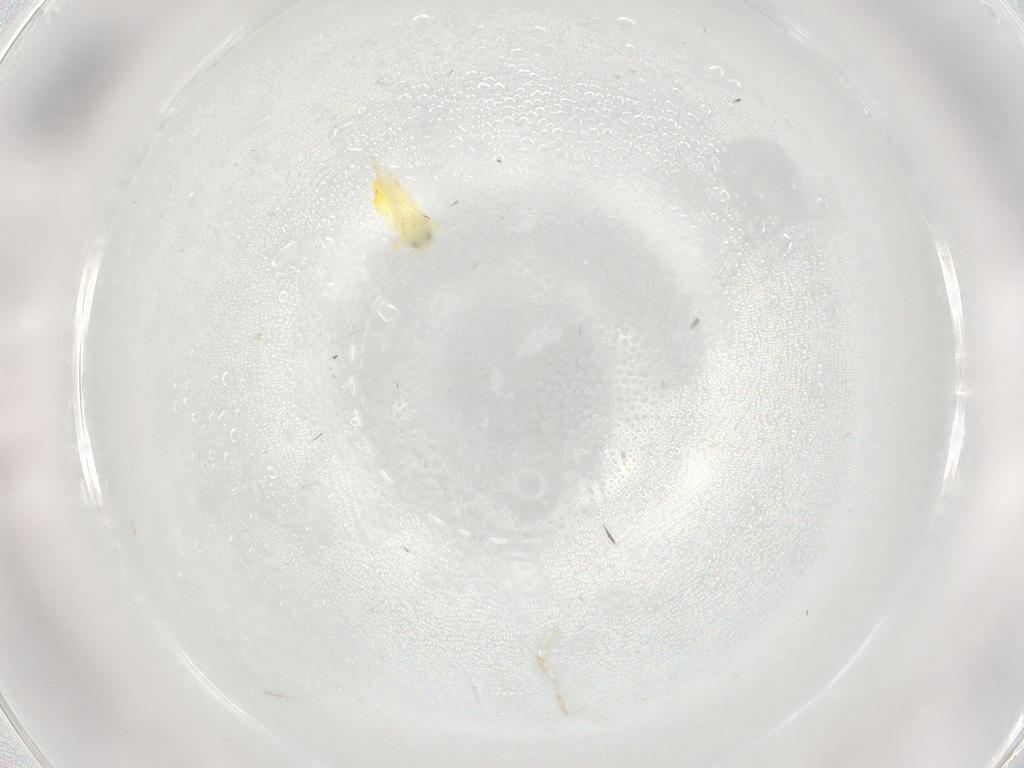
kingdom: Animalia
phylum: Arthropoda
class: Insecta
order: Hemiptera
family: Aleyrodidae
